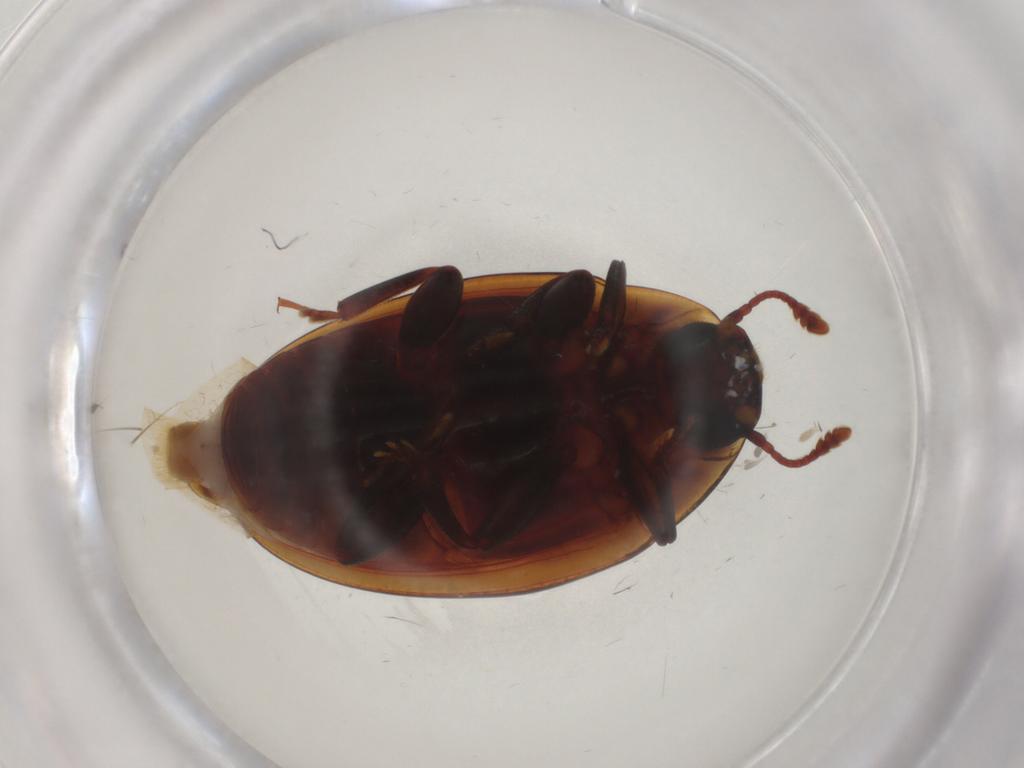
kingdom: Animalia
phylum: Arthropoda
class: Insecta
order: Coleoptera
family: Zopheridae
